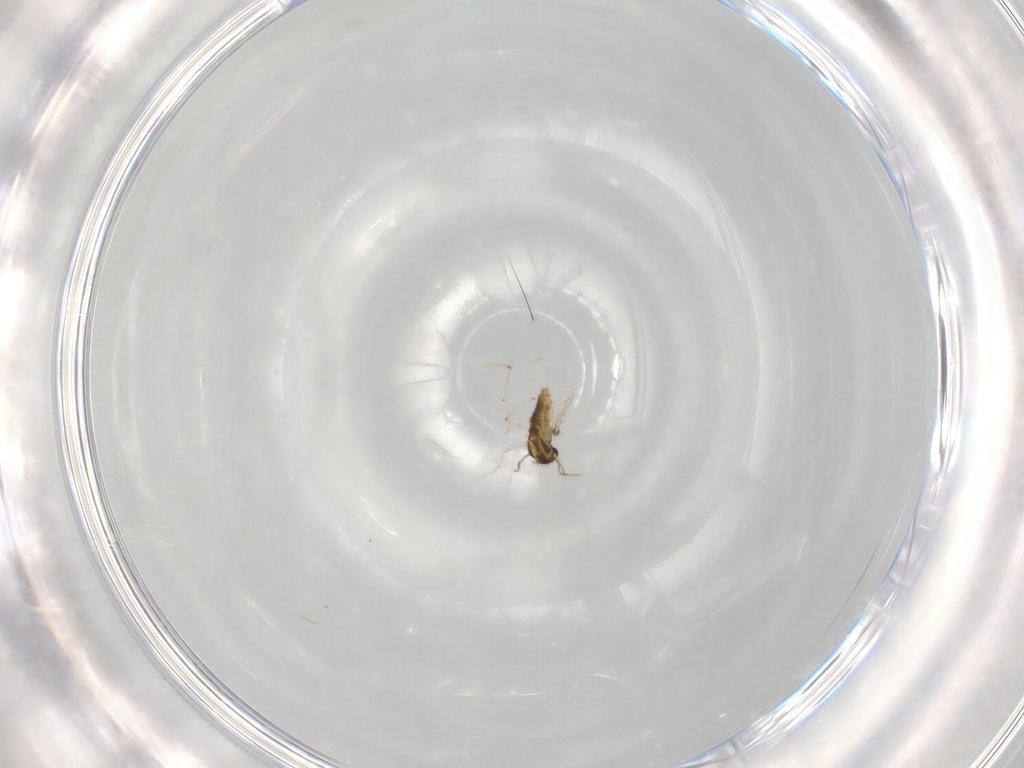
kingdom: Animalia
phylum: Arthropoda
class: Insecta
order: Diptera
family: Chironomidae
